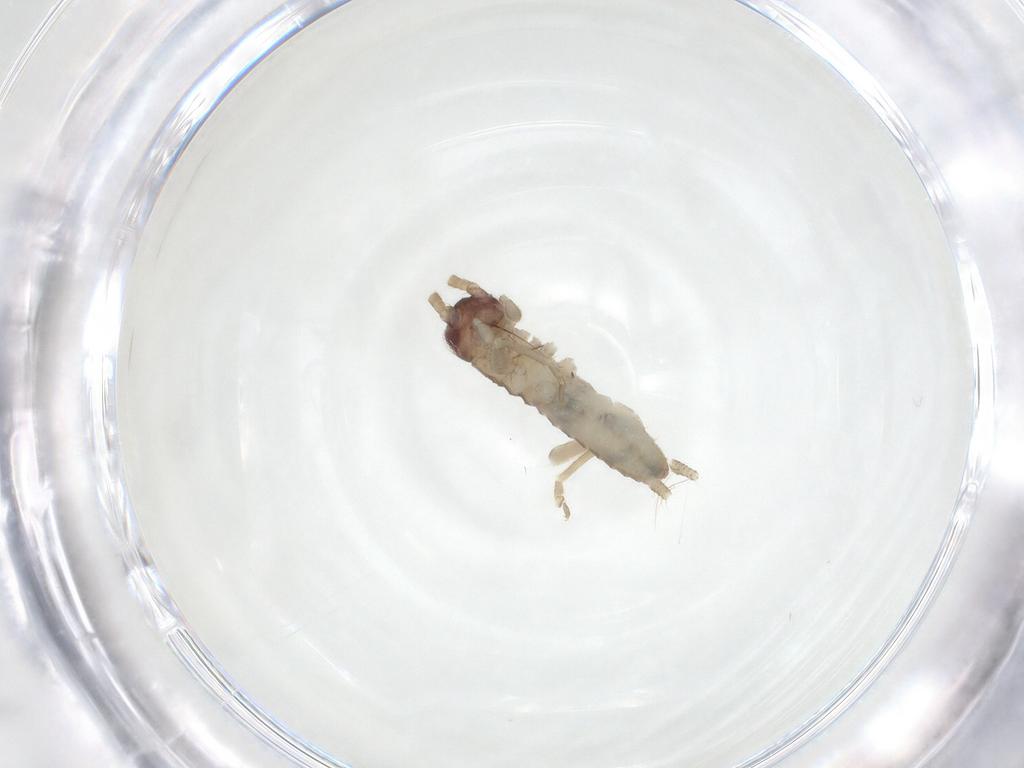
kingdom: Animalia
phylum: Arthropoda
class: Insecta
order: Orthoptera
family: Gryllidae
